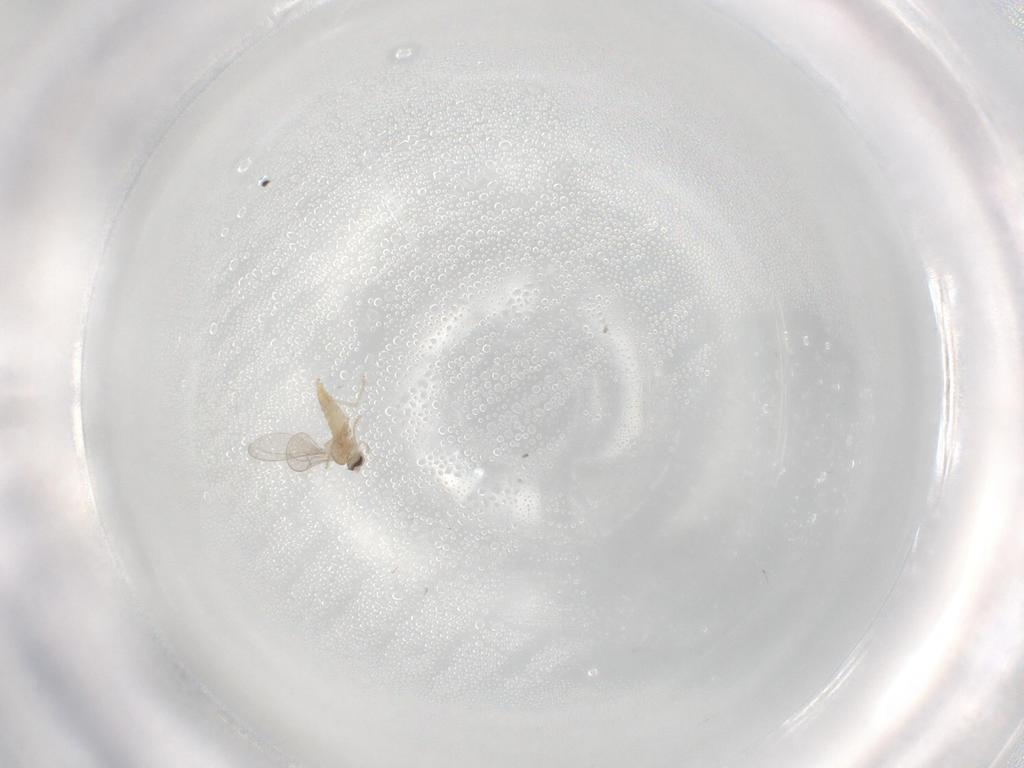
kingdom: Animalia
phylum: Arthropoda
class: Insecta
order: Diptera
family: Cecidomyiidae
